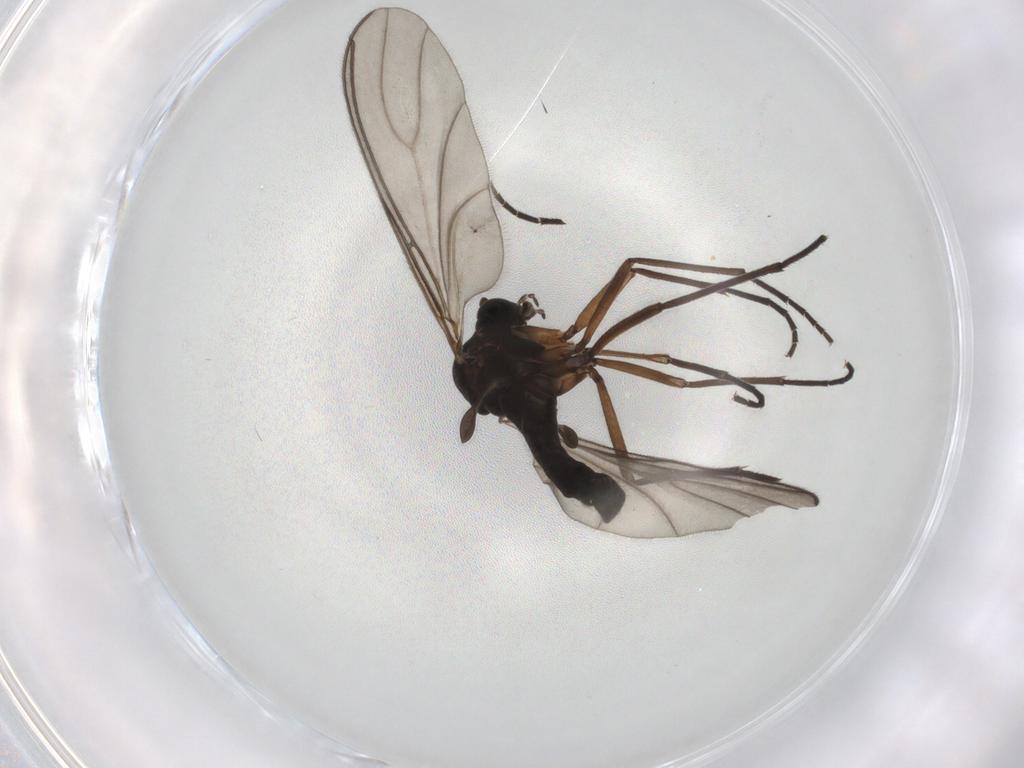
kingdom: Animalia
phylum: Arthropoda
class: Insecta
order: Diptera
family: Sciaridae
